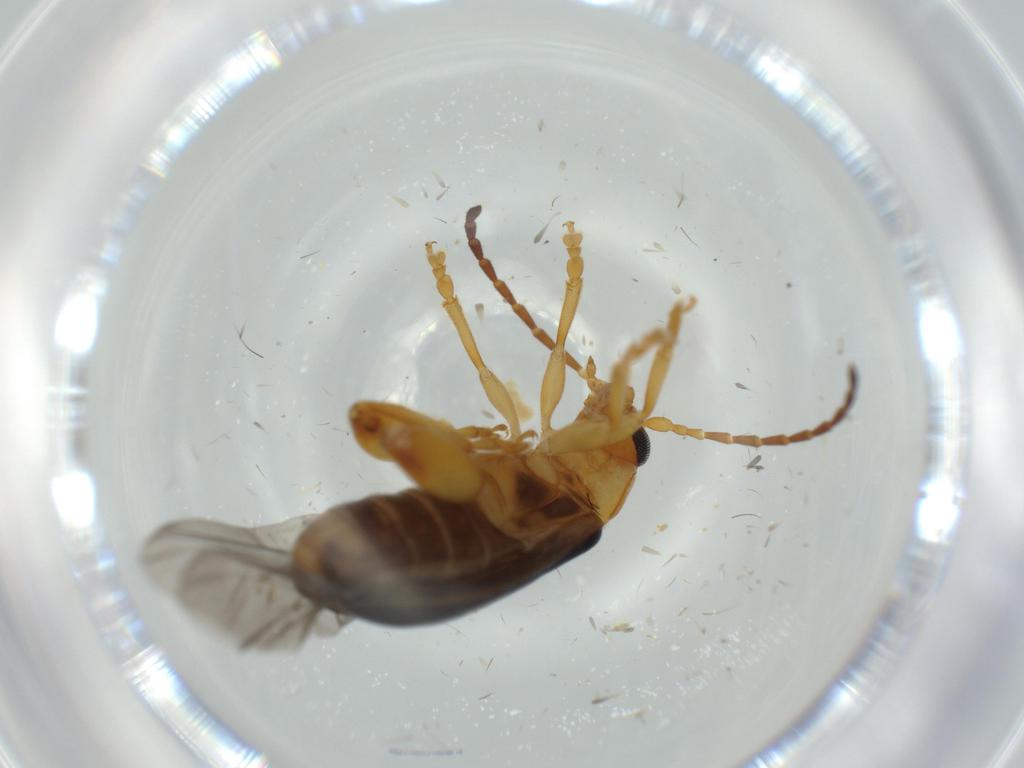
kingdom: Animalia
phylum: Arthropoda
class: Insecta
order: Coleoptera
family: Chrysomelidae
